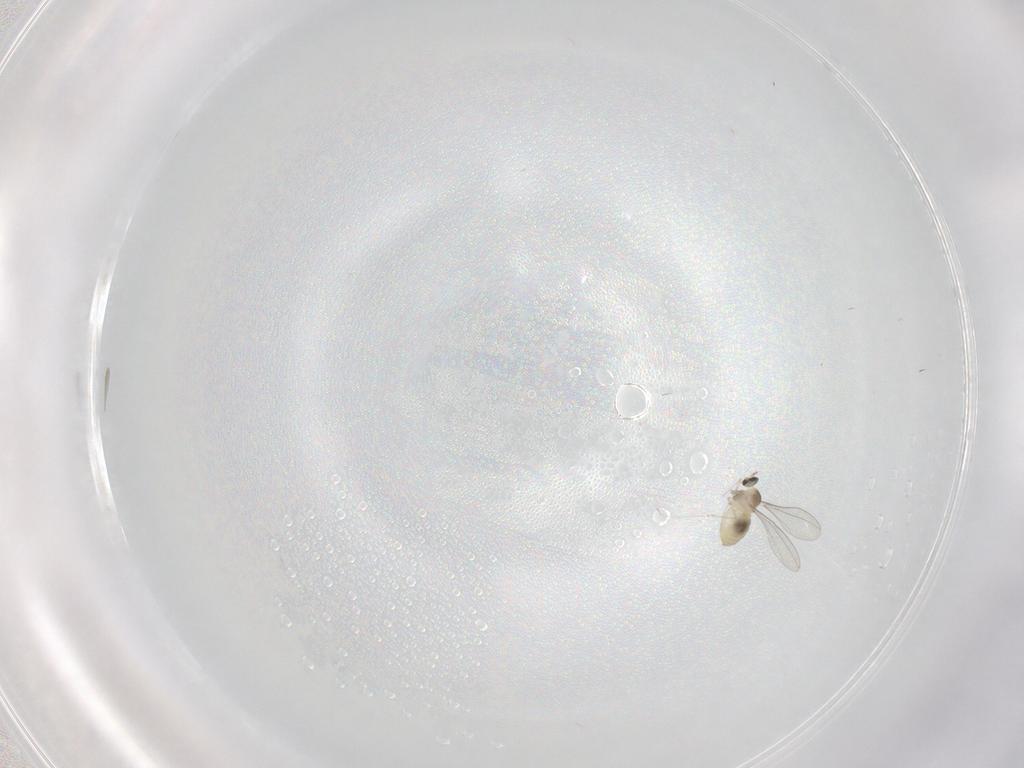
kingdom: Animalia
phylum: Arthropoda
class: Insecta
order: Diptera
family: Cecidomyiidae
